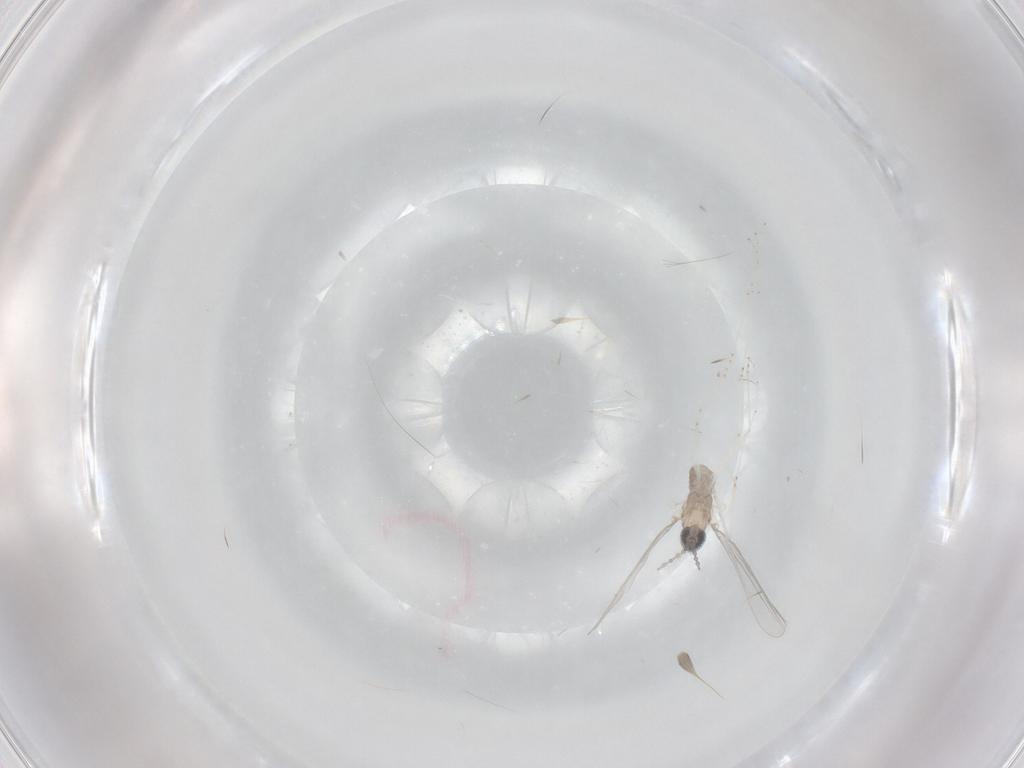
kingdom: Animalia
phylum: Arthropoda
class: Insecta
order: Diptera
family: Cecidomyiidae
